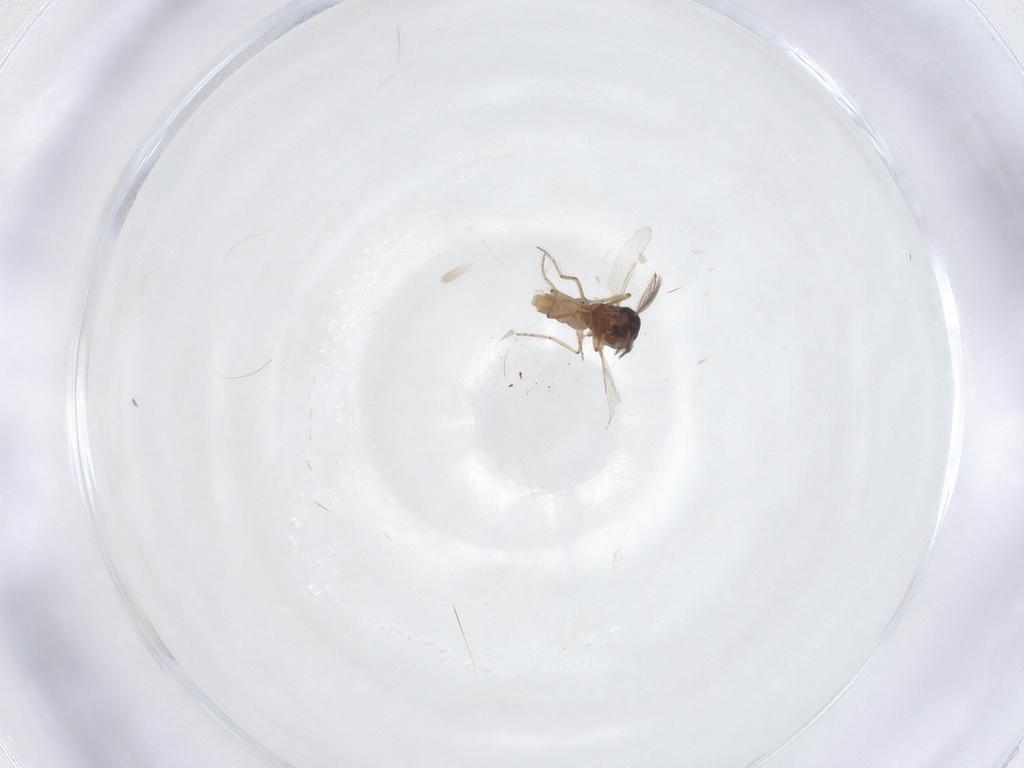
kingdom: Animalia
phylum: Arthropoda
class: Insecta
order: Diptera
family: Ceratopogonidae
